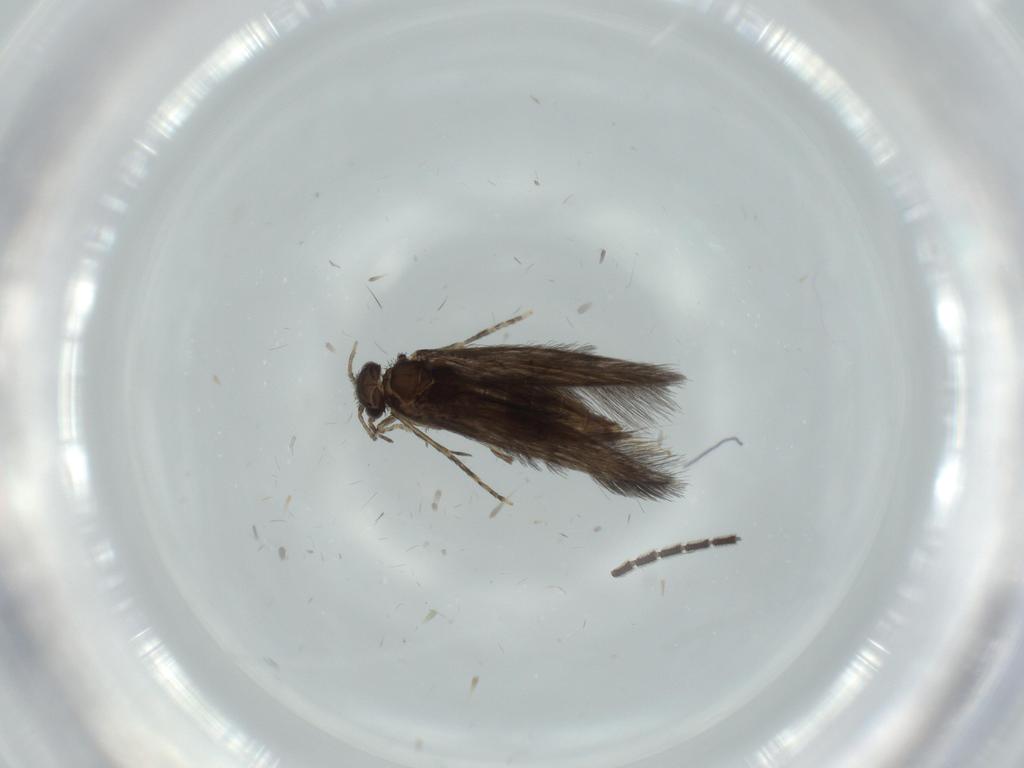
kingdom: Animalia
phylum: Arthropoda
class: Insecta
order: Trichoptera
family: Hydroptilidae
